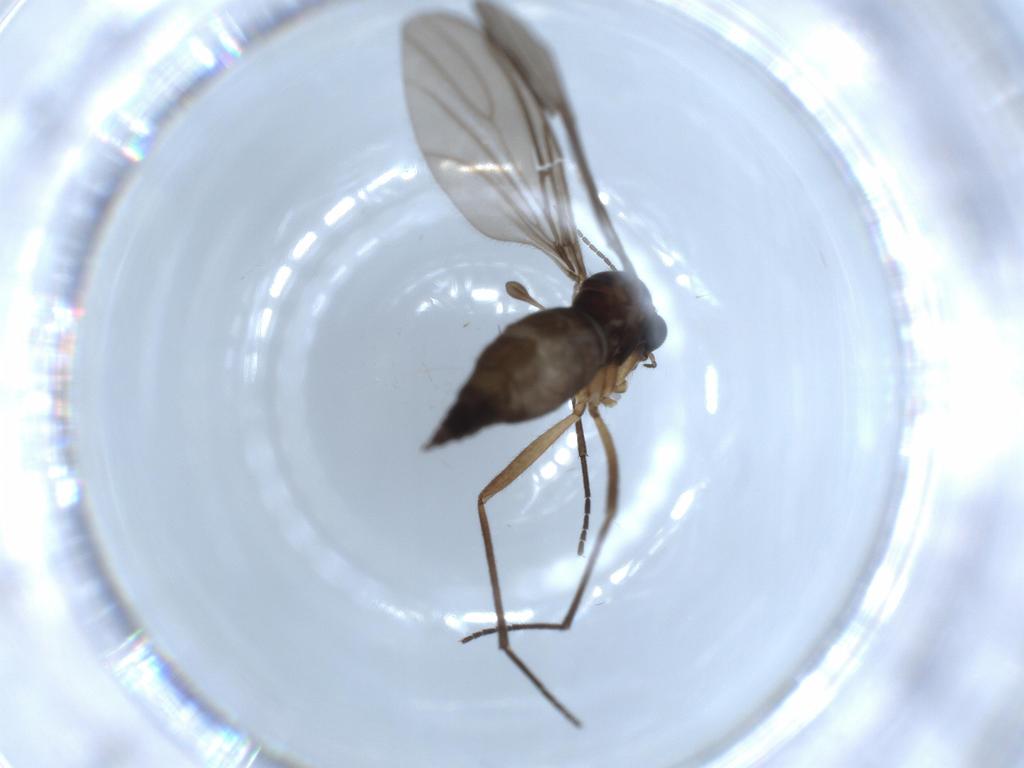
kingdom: Animalia
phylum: Arthropoda
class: Insecta
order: Diptera
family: Sciaridae
